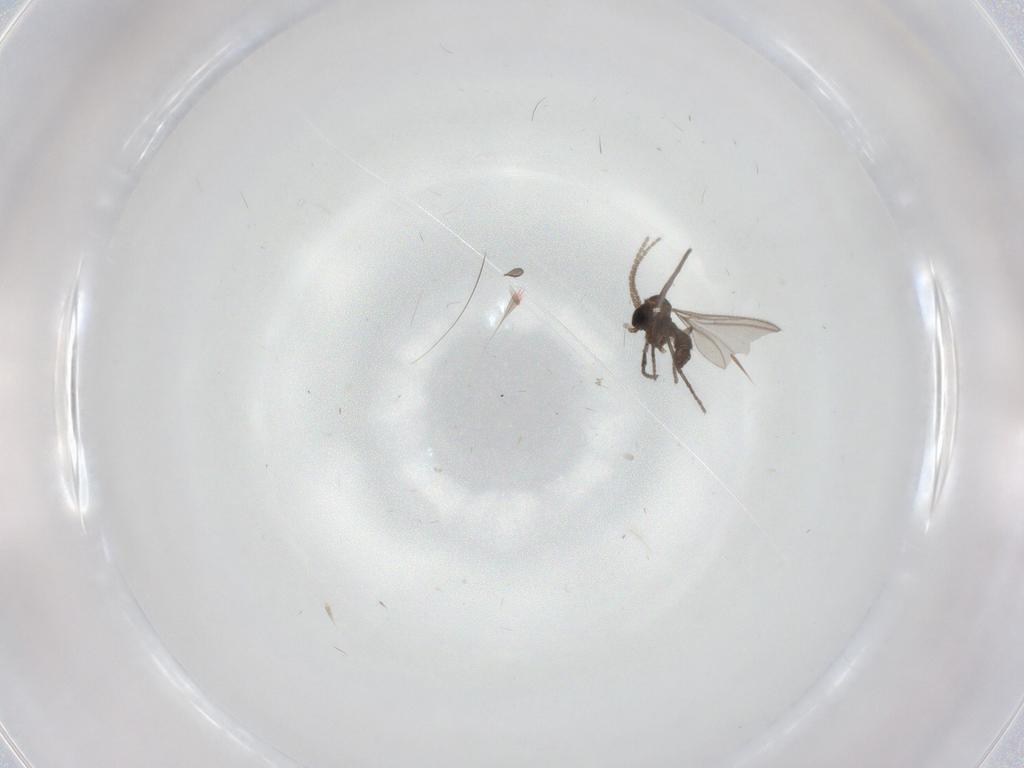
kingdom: Animalia
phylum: Arthropoda
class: Insecta
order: Diptera
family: Sciaridae
